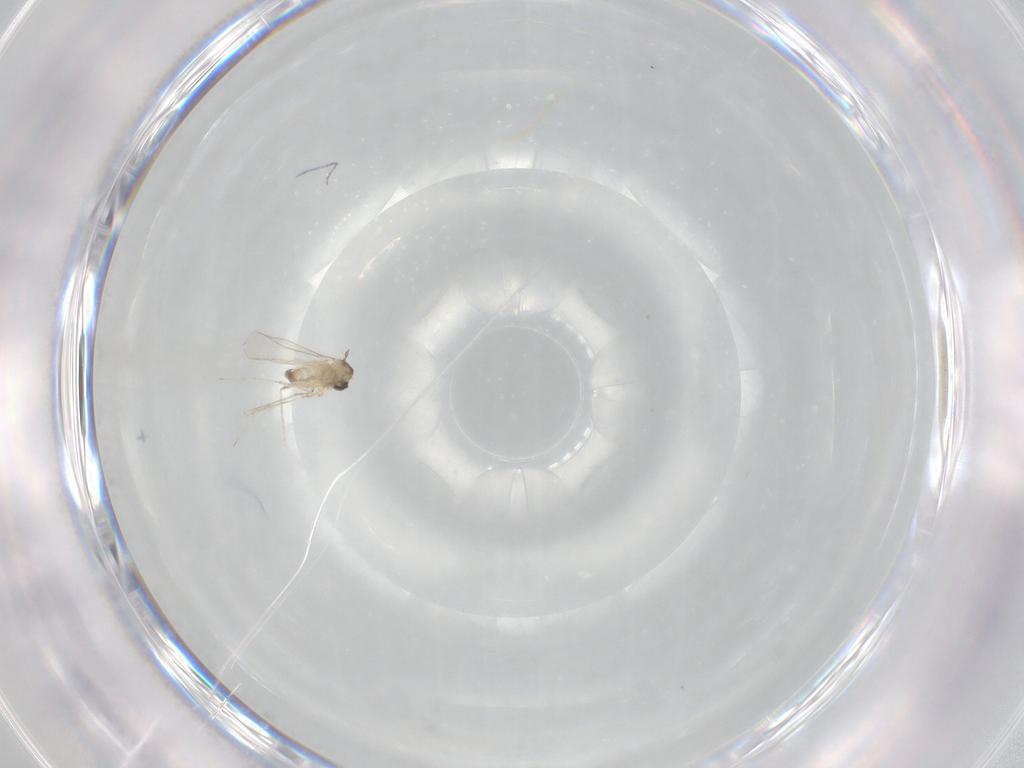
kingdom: Animalia
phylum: Arthropoda
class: Insecta
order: Diptera
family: Cecidomyiidae
